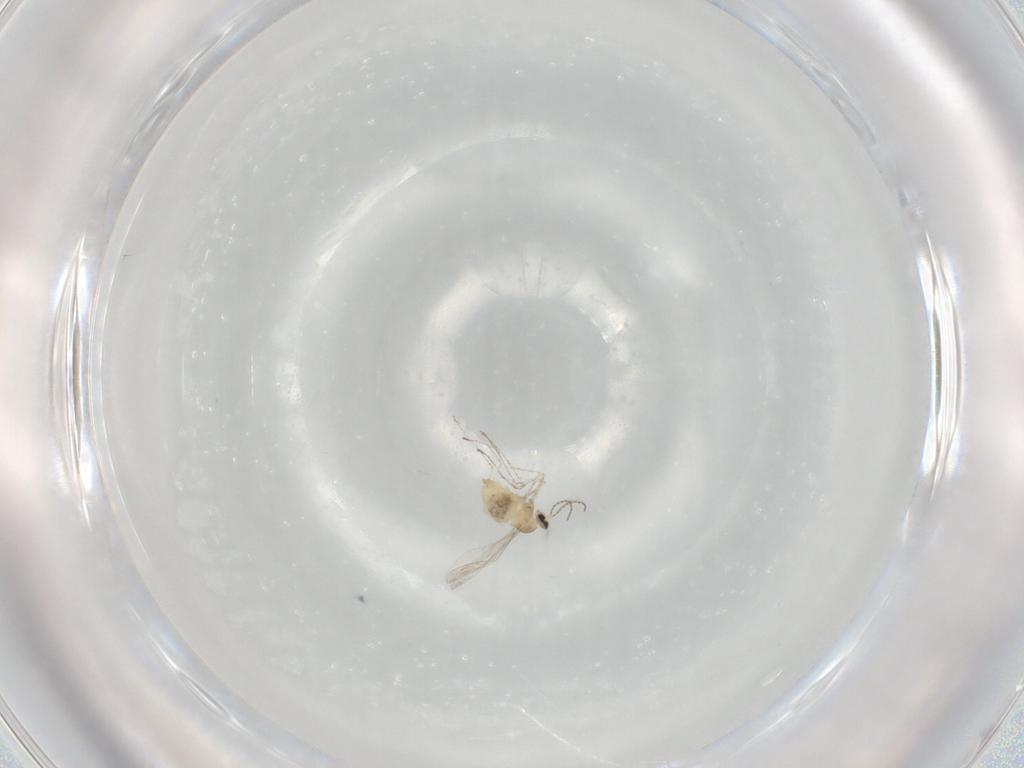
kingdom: Animalia
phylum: Arthropoda
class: Insecta
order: Diptera
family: Cecidomyiidae
